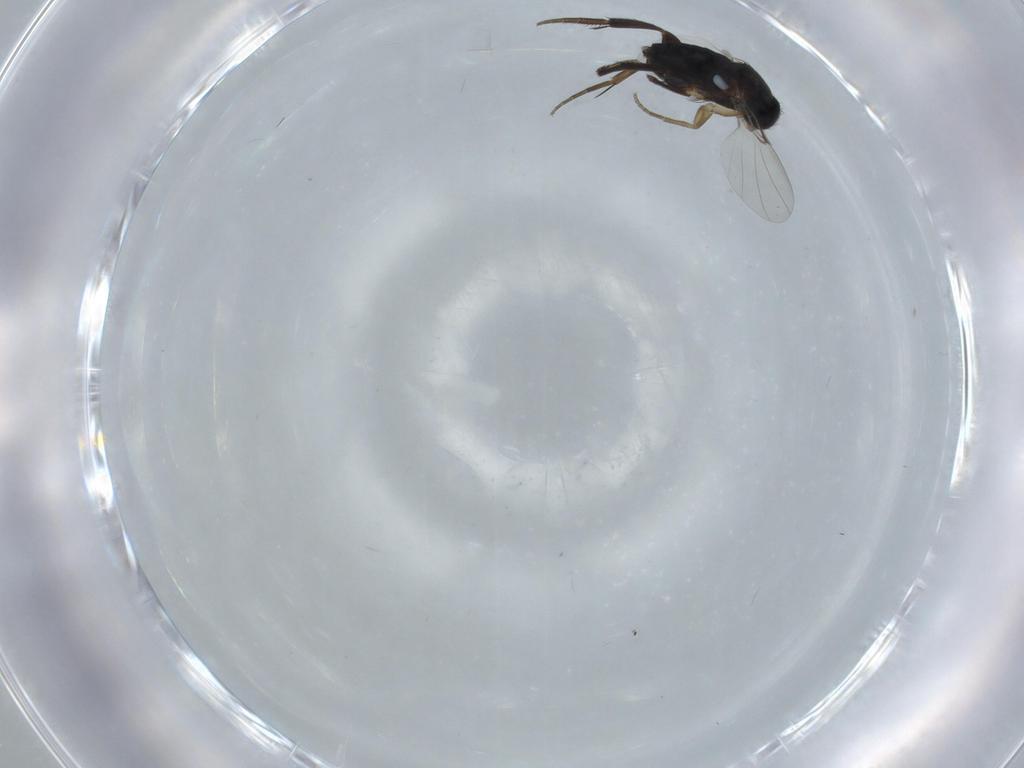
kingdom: Animalia
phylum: Arthropoda
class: Insecta
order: Diptera
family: Phoridae
